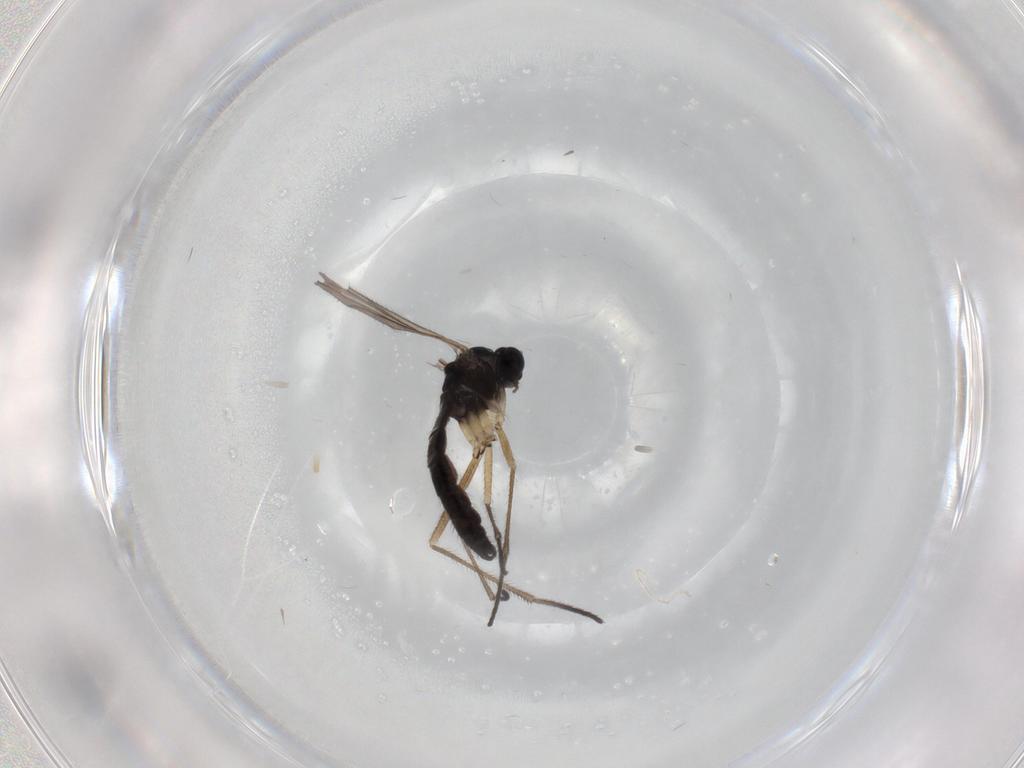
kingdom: Animalia
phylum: Arthropoda
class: Insecta
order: Diptera
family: Sciaridae
